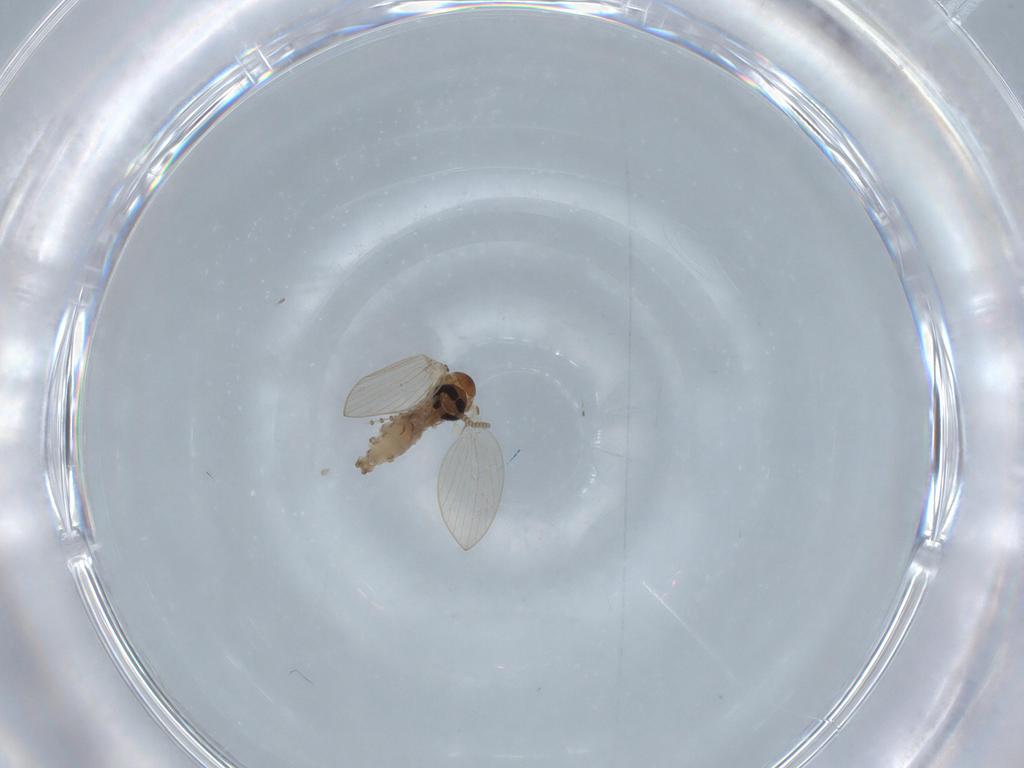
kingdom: Animalia
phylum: Arthropoda
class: Insecta
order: Diptera
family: Psychodidae
